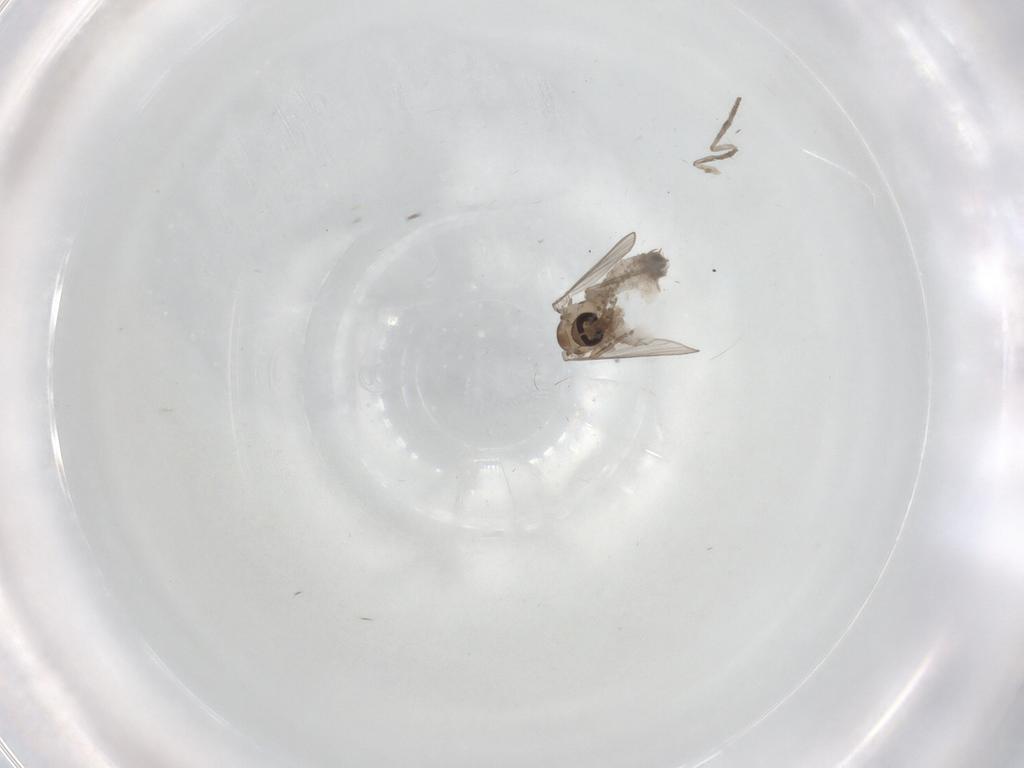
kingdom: Animalia
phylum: Arthropoda
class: Insecta
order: Diptera
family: Psychodidae
